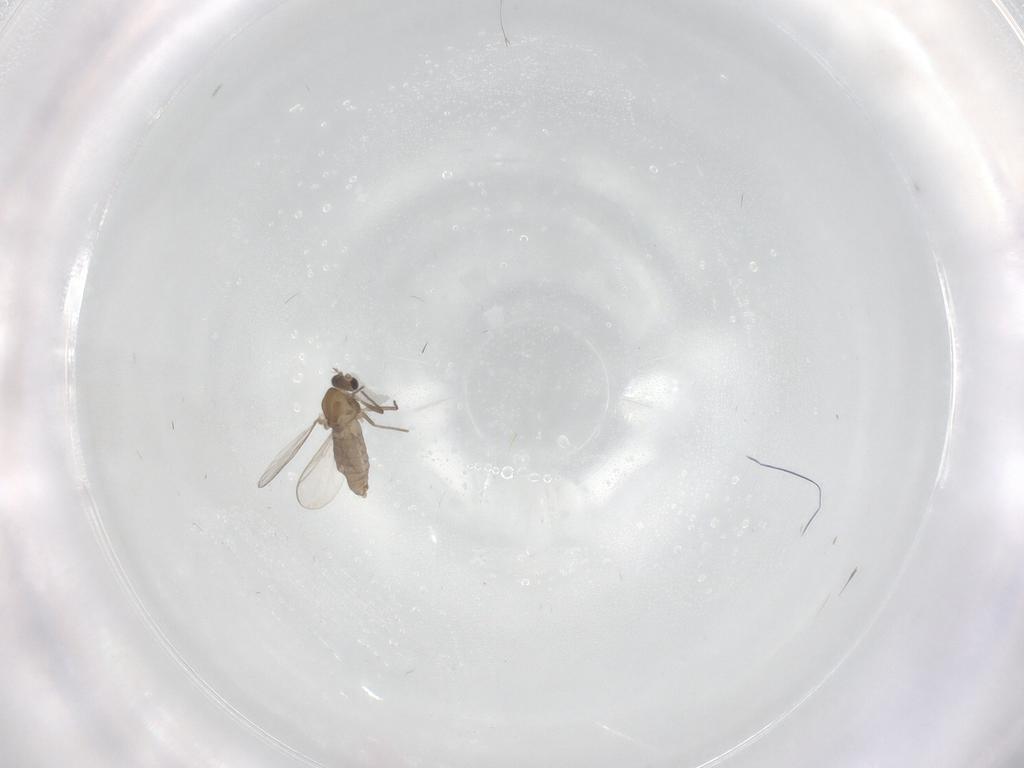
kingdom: Animalia
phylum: Arthropoda
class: Insecta
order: Diptera
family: Chironomidae
